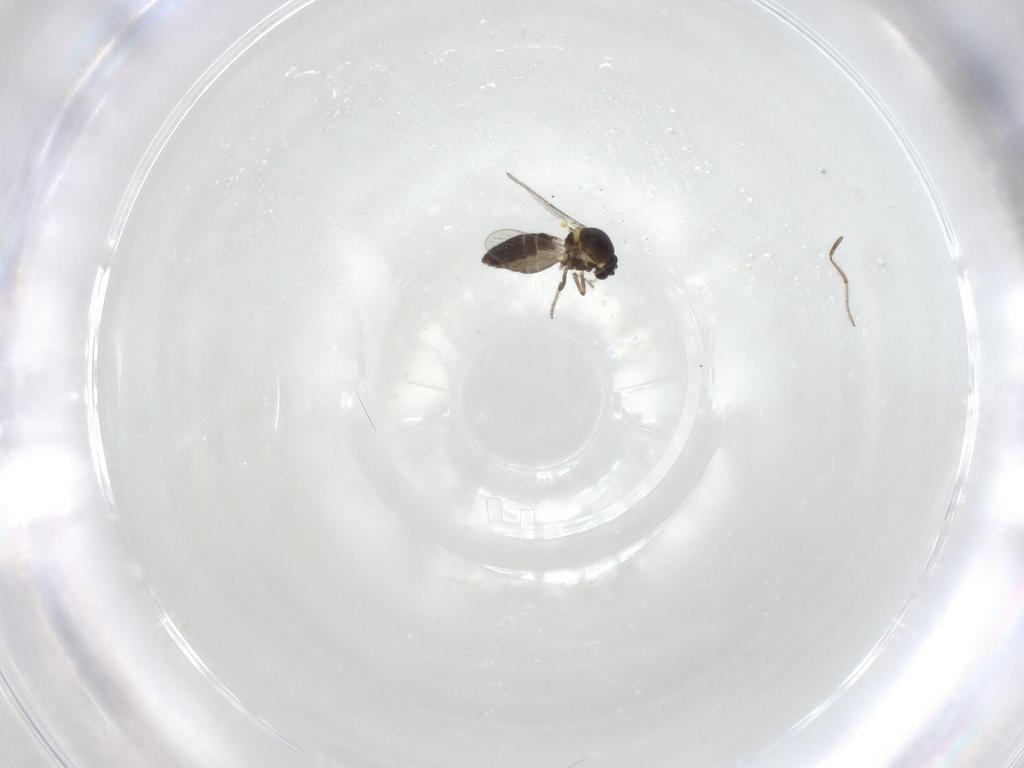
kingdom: Animalia
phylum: Arthropoda
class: Insecta
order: Diptera
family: Ceratopogonidae
